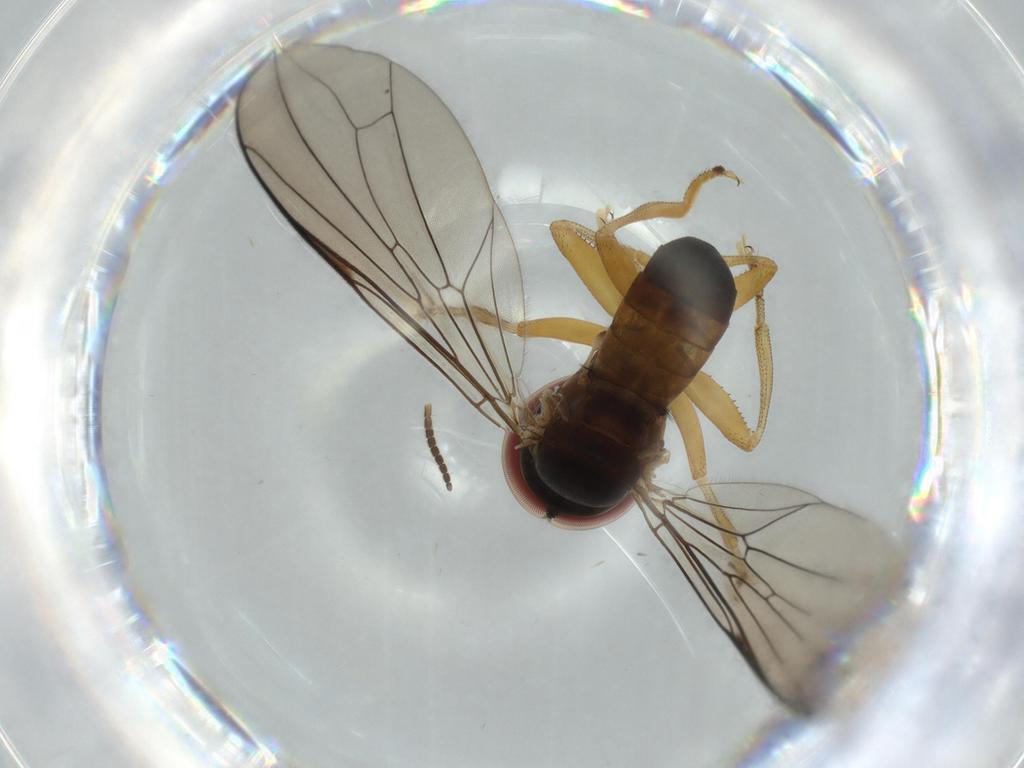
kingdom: Animalia
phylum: Arthropoda
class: Insecta
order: Diptera
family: Pipunculidae
